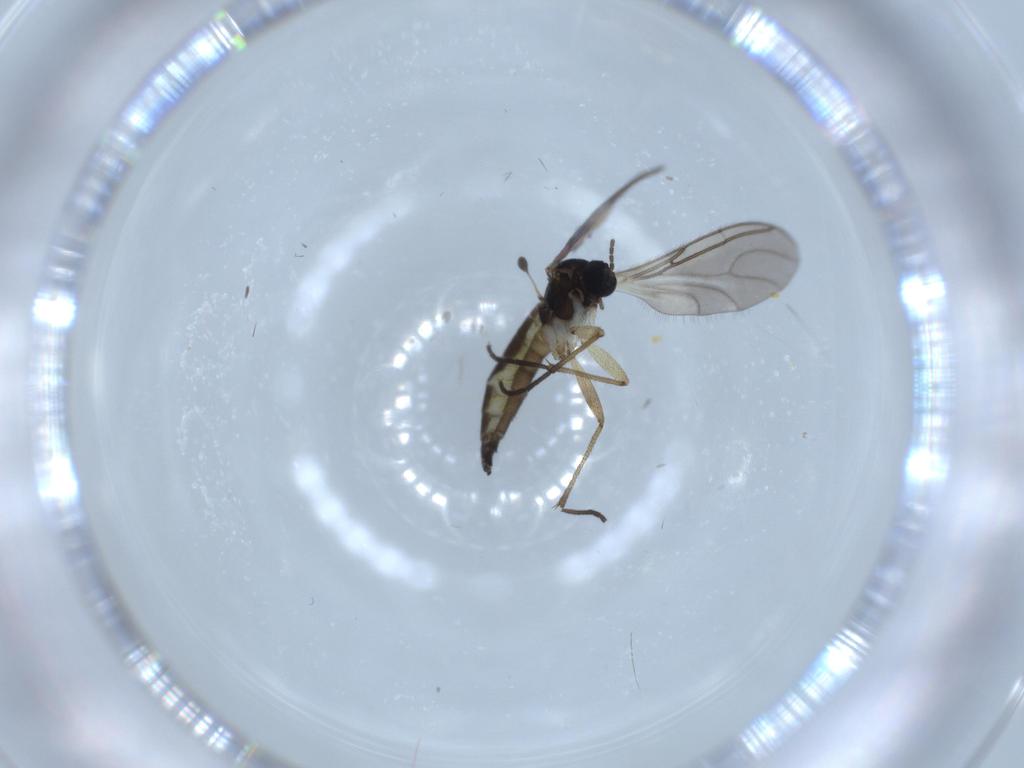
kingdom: Animalia
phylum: Arthropoda
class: Insecta
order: Diptera
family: Sciaridae
